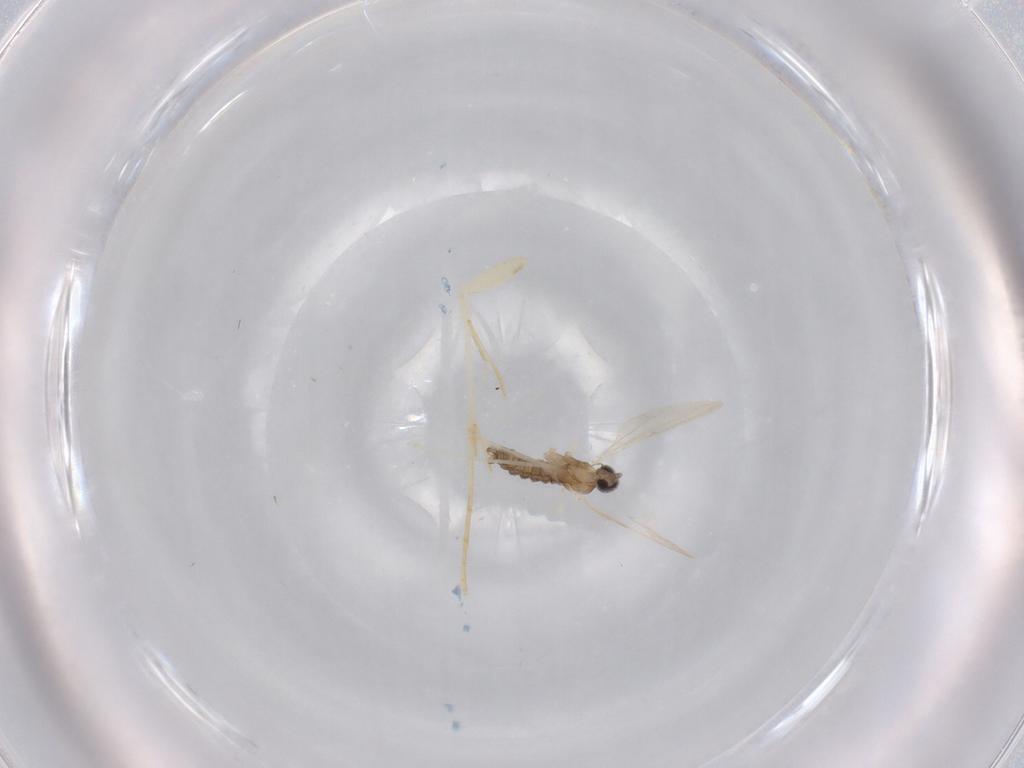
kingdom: Animalia
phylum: Arthropoda
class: Insecta
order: Diptera
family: Cecidomyiidae
